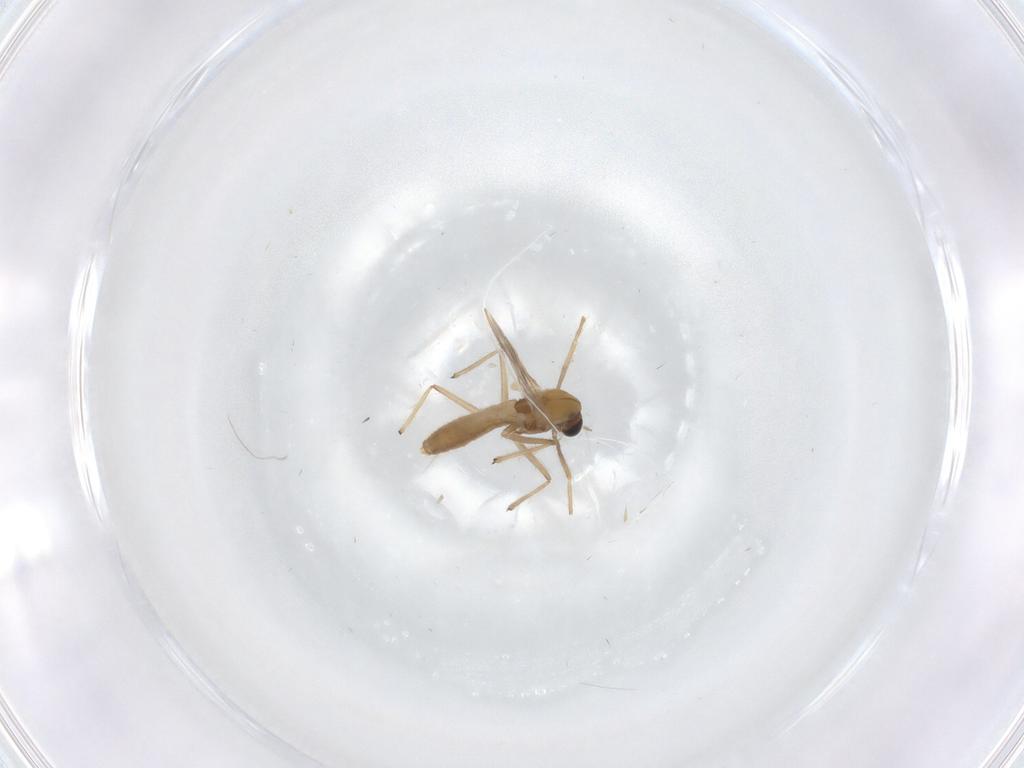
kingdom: Animalia
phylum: Arthropoda
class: Insecta
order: Diptera
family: Chironomidae
